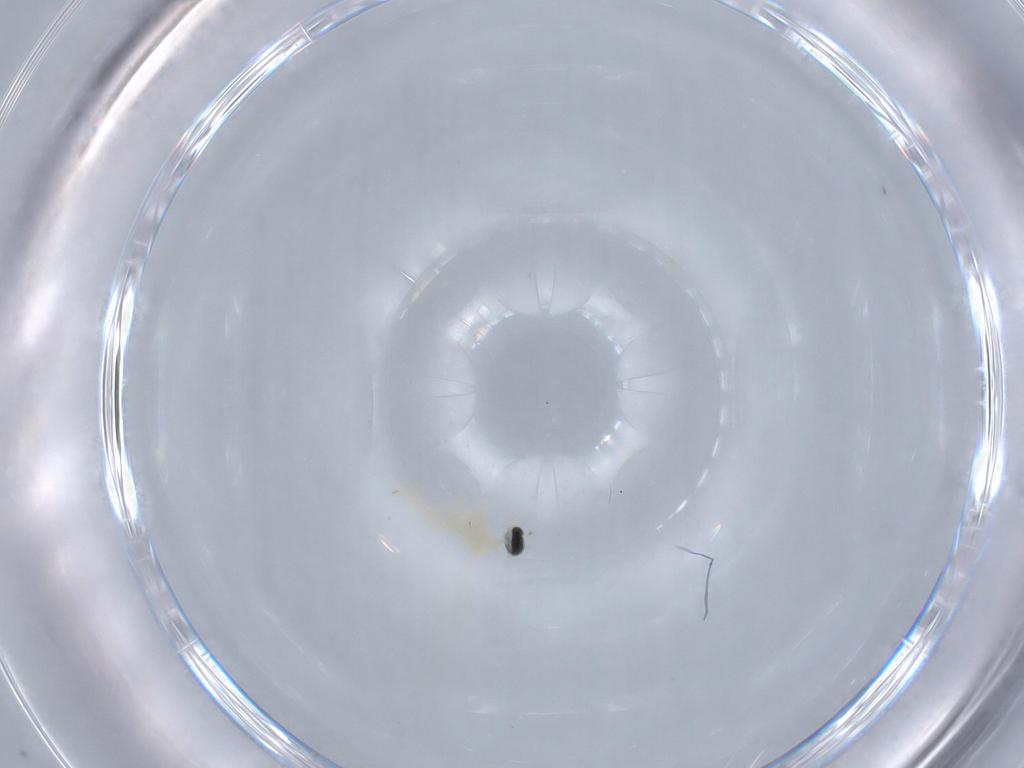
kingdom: Animalia
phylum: Arthropoda
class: Insecta
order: Diptera
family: Cecidomyiidae
